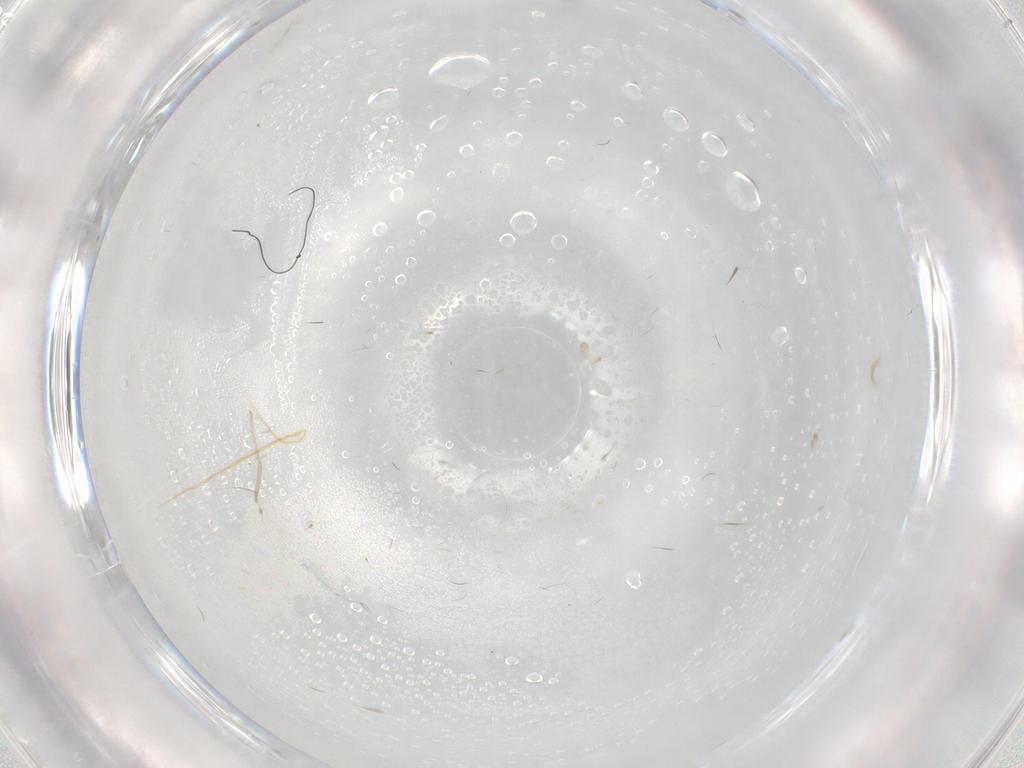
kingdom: Animalia
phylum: Arthropoda
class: Insecta
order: Diptera
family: Sciaridae
